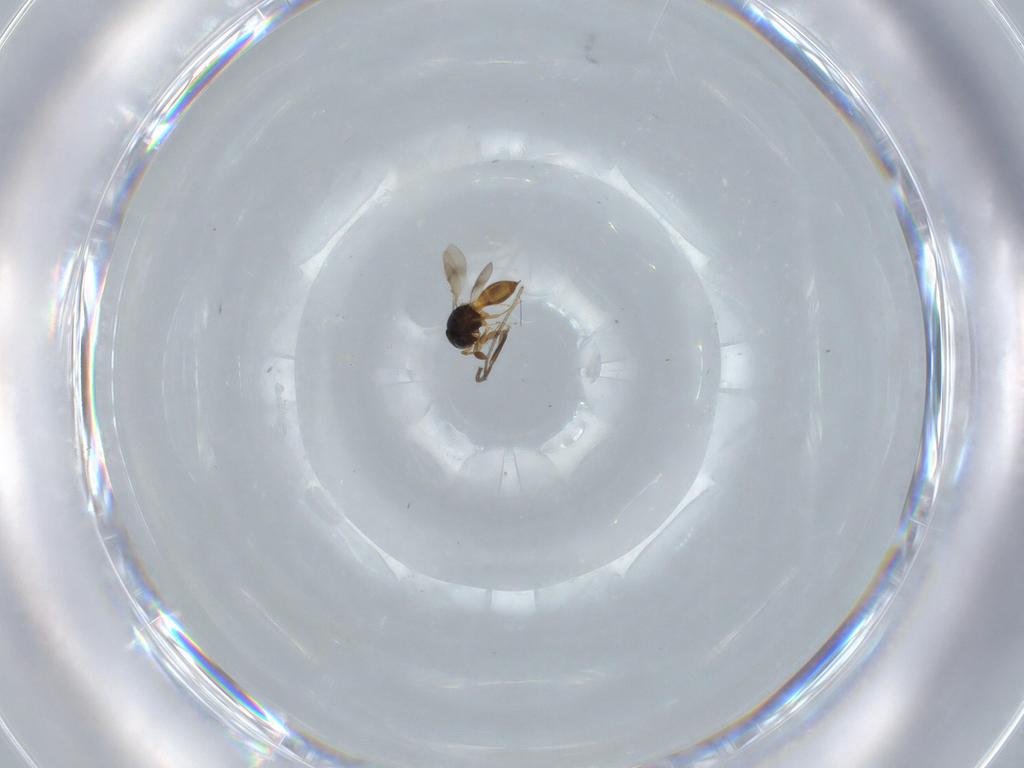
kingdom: Animalia
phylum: Arthropoda
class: Insecta
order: Hymenoptera
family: Scelionidae
